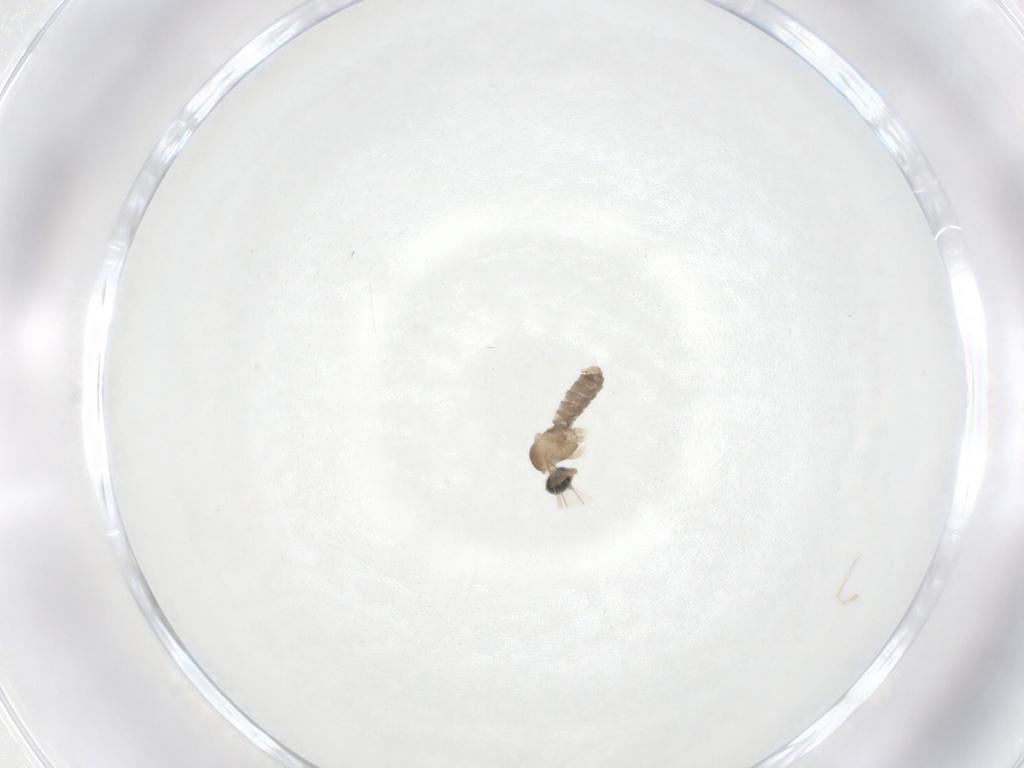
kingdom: Animalia
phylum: Arthropoda
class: Insecta
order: Diptera
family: Cecidomyiidae
